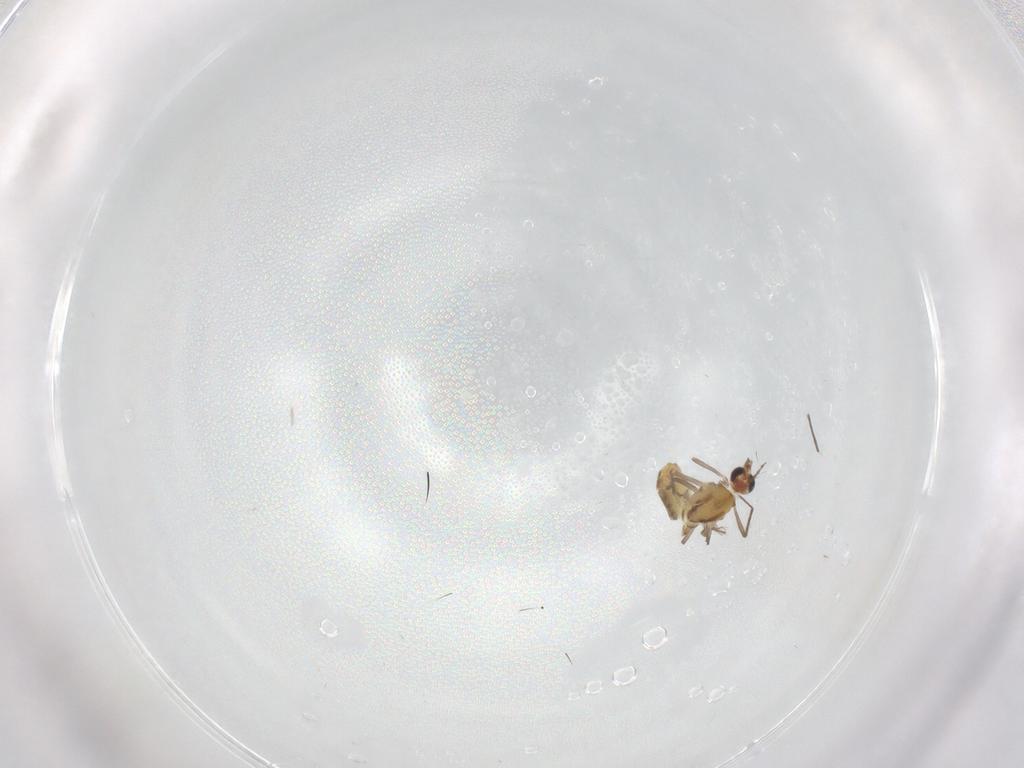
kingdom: Animalia
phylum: Arthropoda
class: Insecta
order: Diptera
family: Chironomidae
